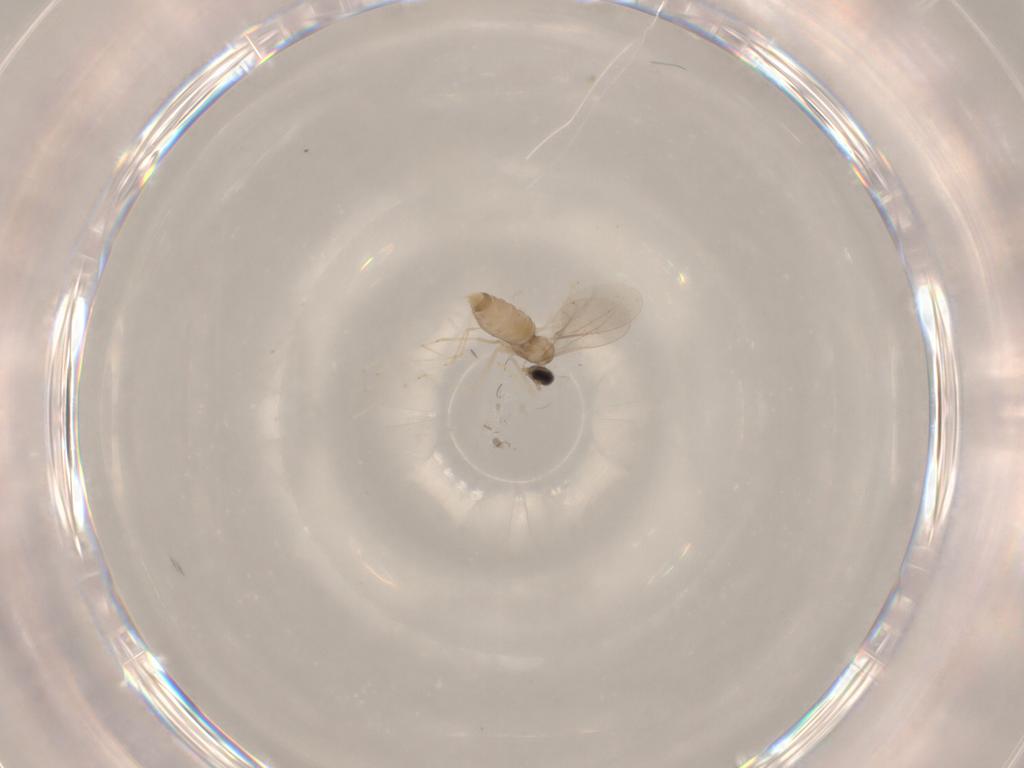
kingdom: Animalia
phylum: Arthropoda
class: Insecta
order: Diptera
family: Cecidomyiidae
